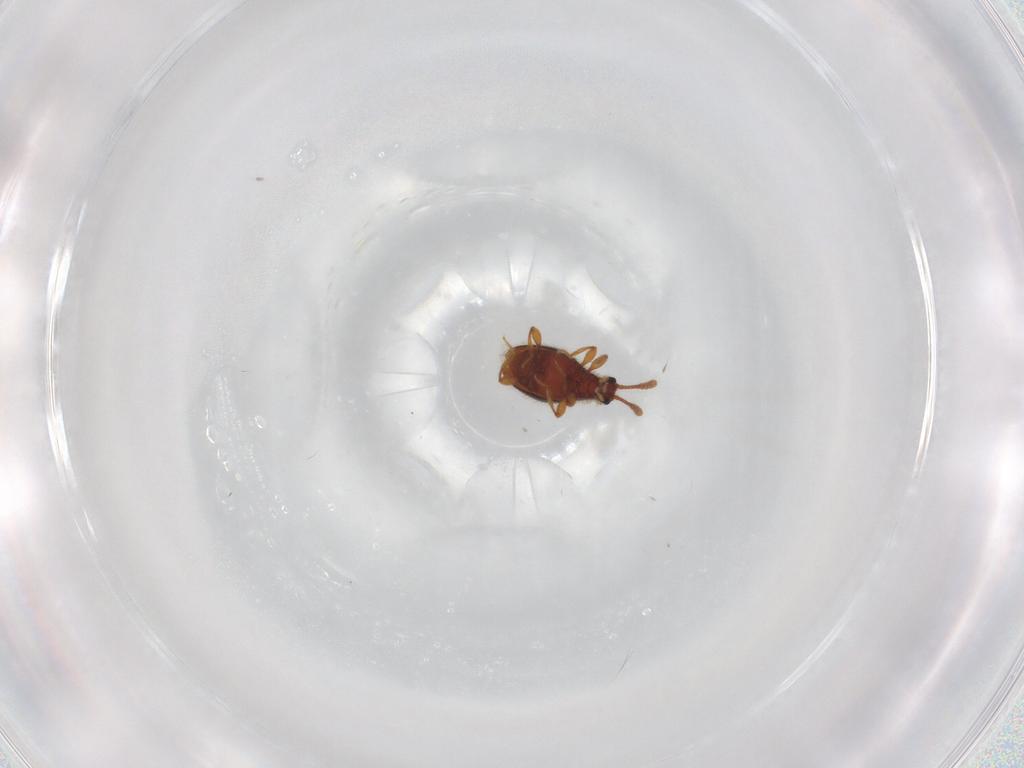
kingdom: Animalia
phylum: Arthropoda
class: Insecta
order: Coleoptera
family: Staphylinidae
